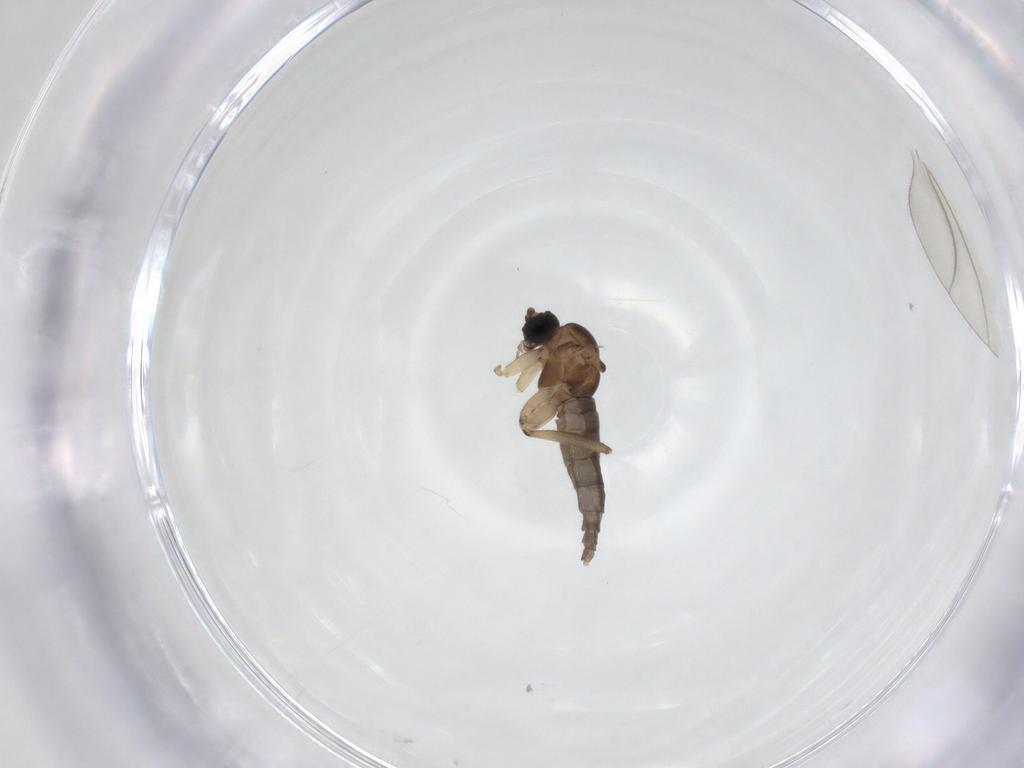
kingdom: Animalia
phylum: Arthropoda
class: Insecta
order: Diptera
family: Sciaridae
